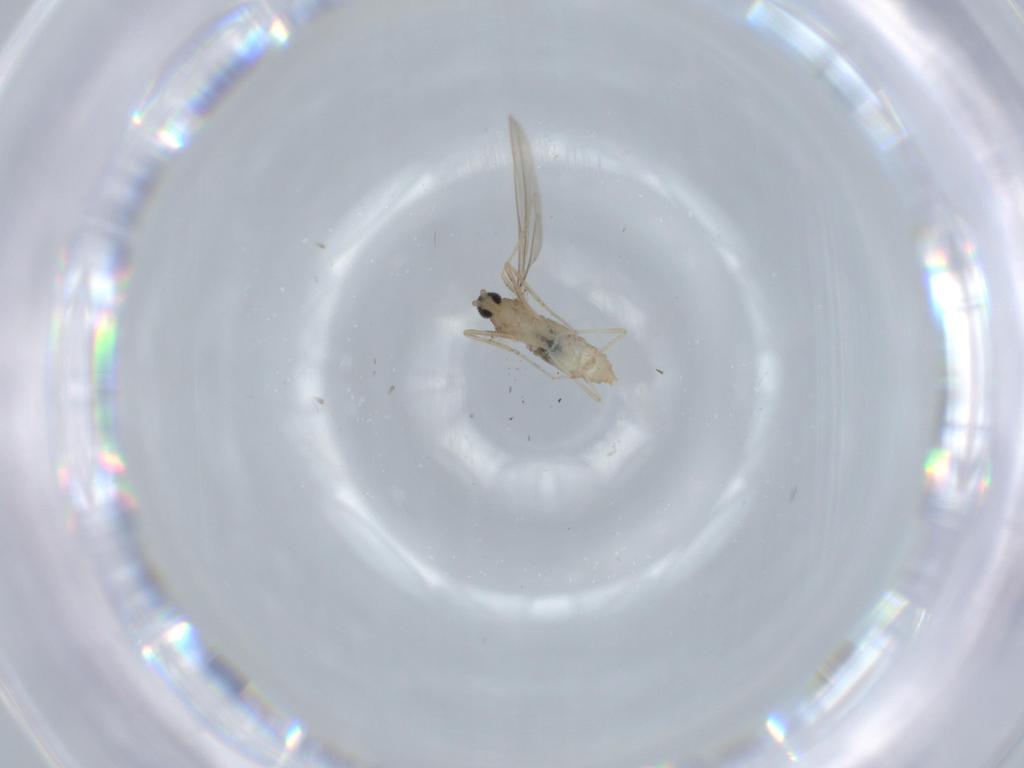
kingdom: Animalia
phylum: Arthropoda
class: Insecta
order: Diptera
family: Cecidomyiidae
